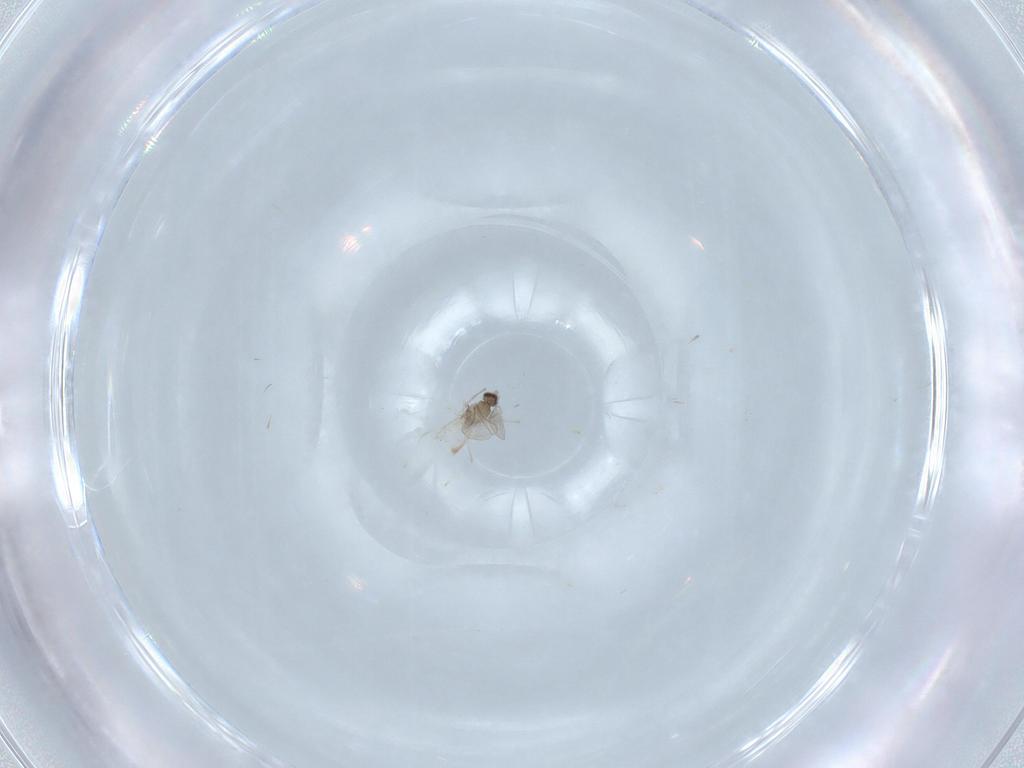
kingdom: Animalia
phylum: Arthropoda
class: Insecta
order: Diptera
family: Cecidomyiidae
